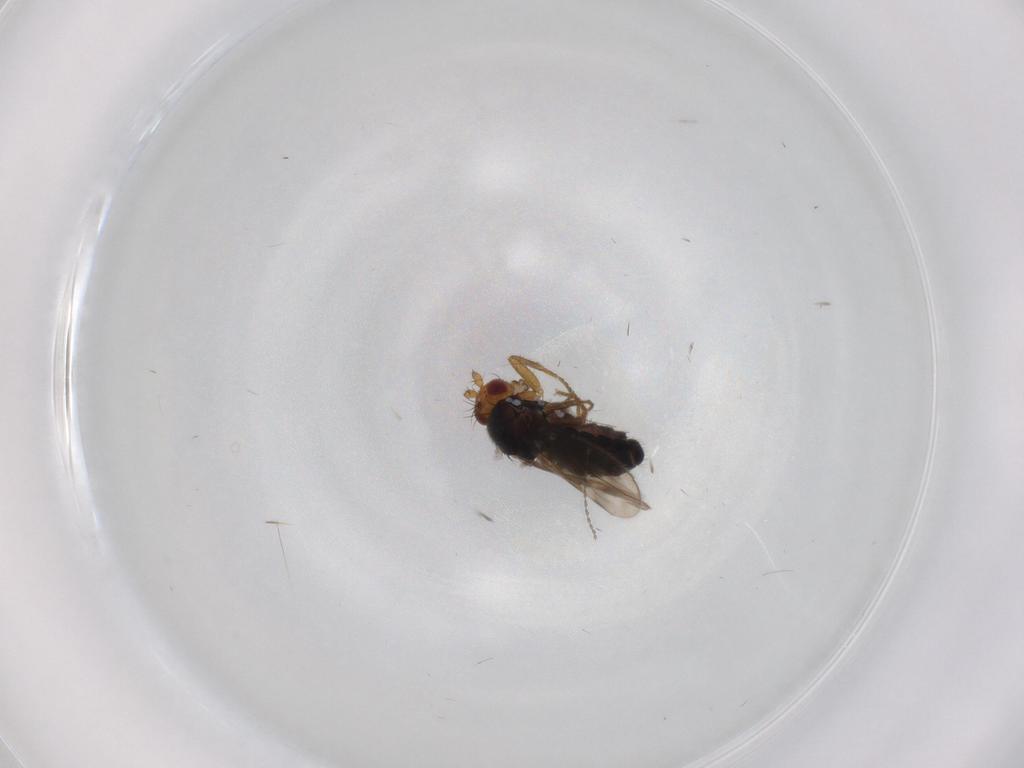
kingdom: Animalia
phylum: Arthropoda
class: Insecta
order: Diptera
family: Sphaeroceridae
